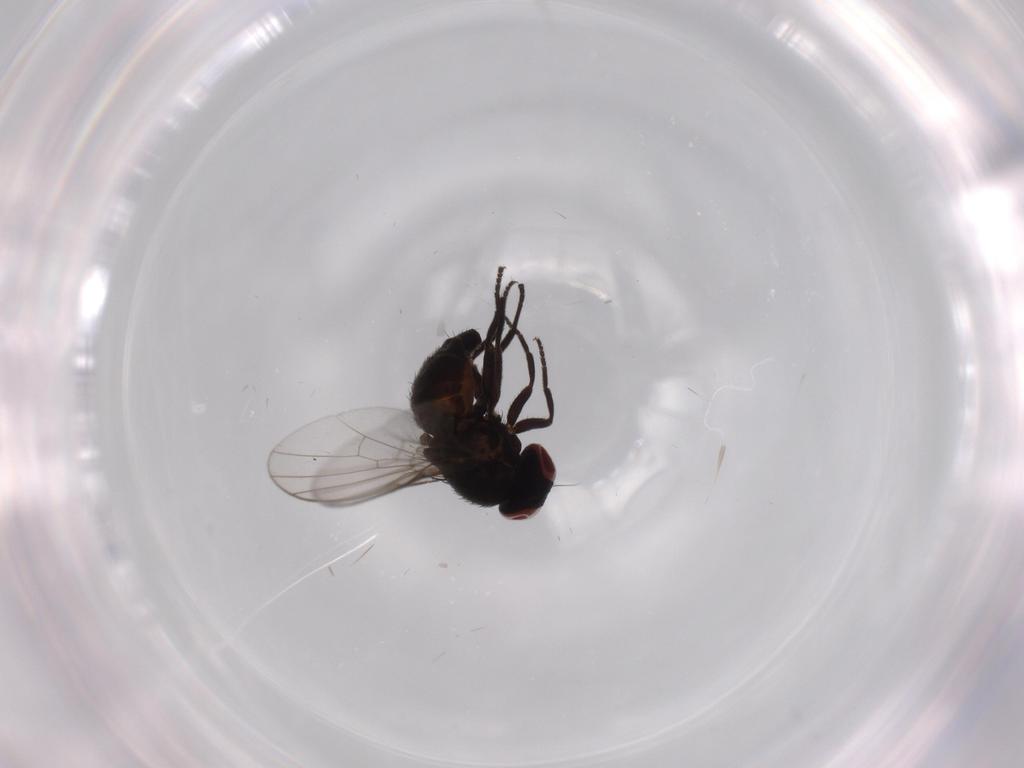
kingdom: Animalia
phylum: Arthropoda
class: Insecta
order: Diptera
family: Agromyzidae
